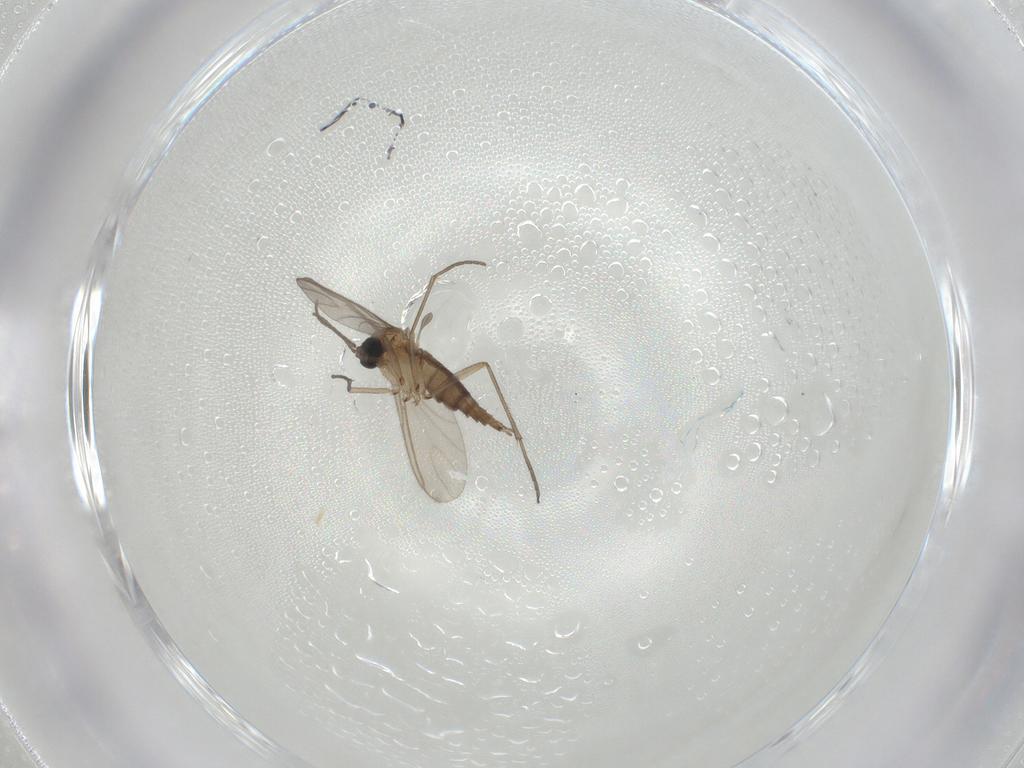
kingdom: Animalia
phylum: Arthropoda
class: Insecta
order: Diptera
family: Sciaridae
